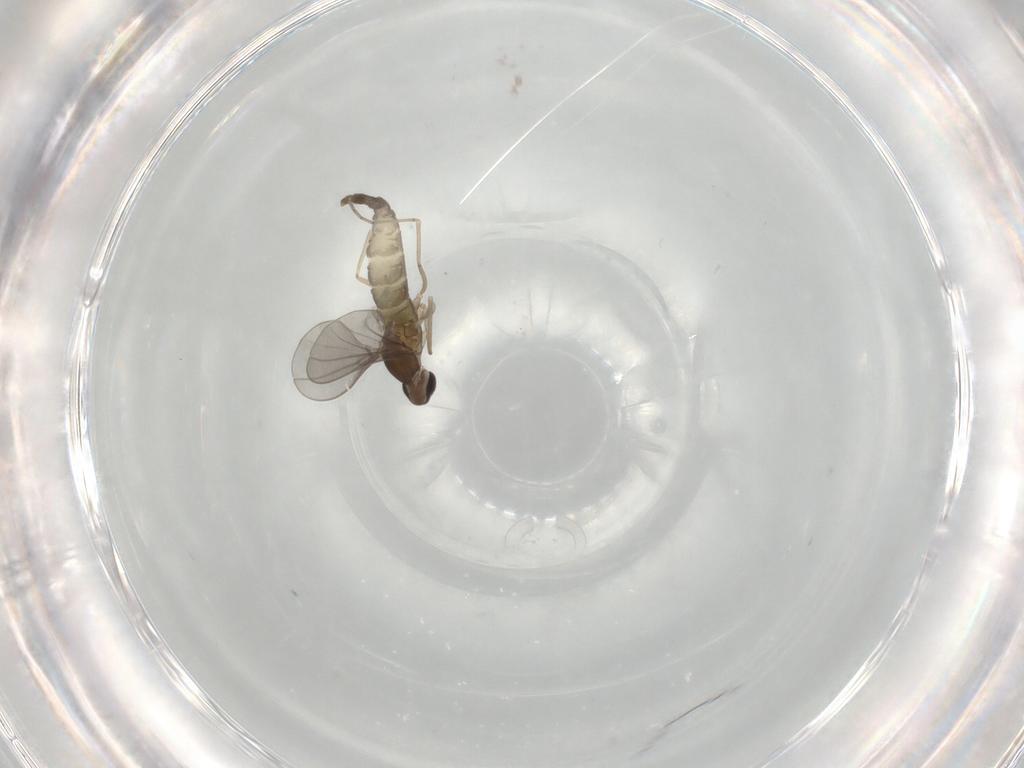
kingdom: Animalia
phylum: Arthropoda
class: Insecta
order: Diptera
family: Cecidomyiidae
